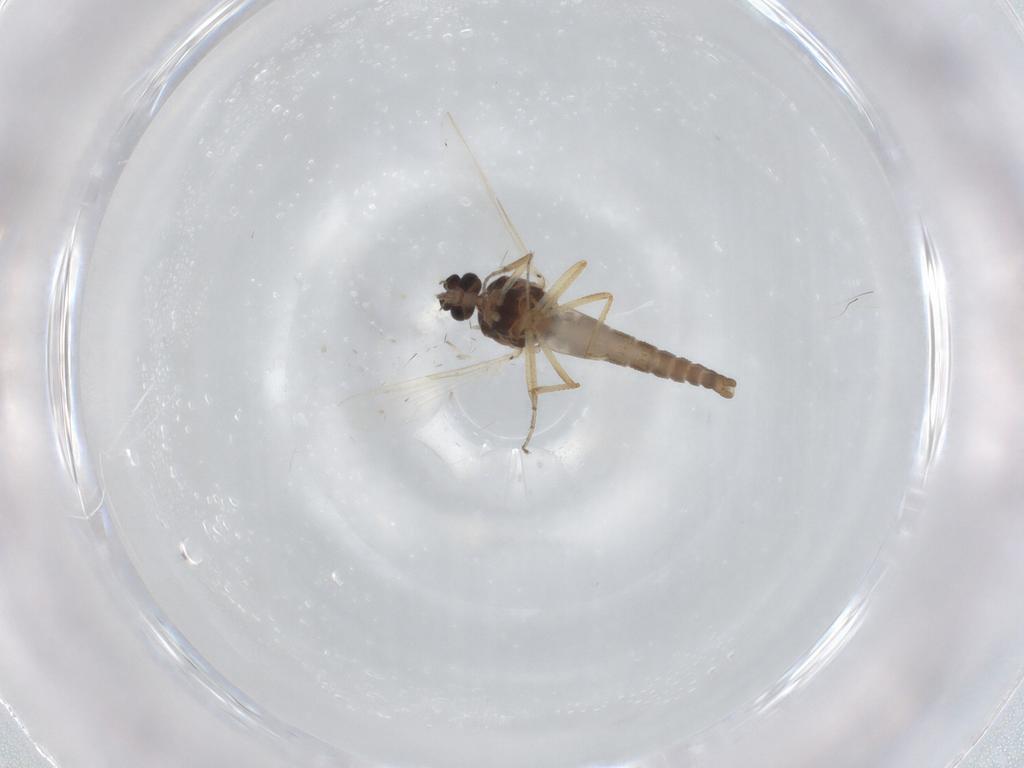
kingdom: Animalia
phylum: Arthropoda
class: Insecta
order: Diptera
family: Ceratopogonidae
